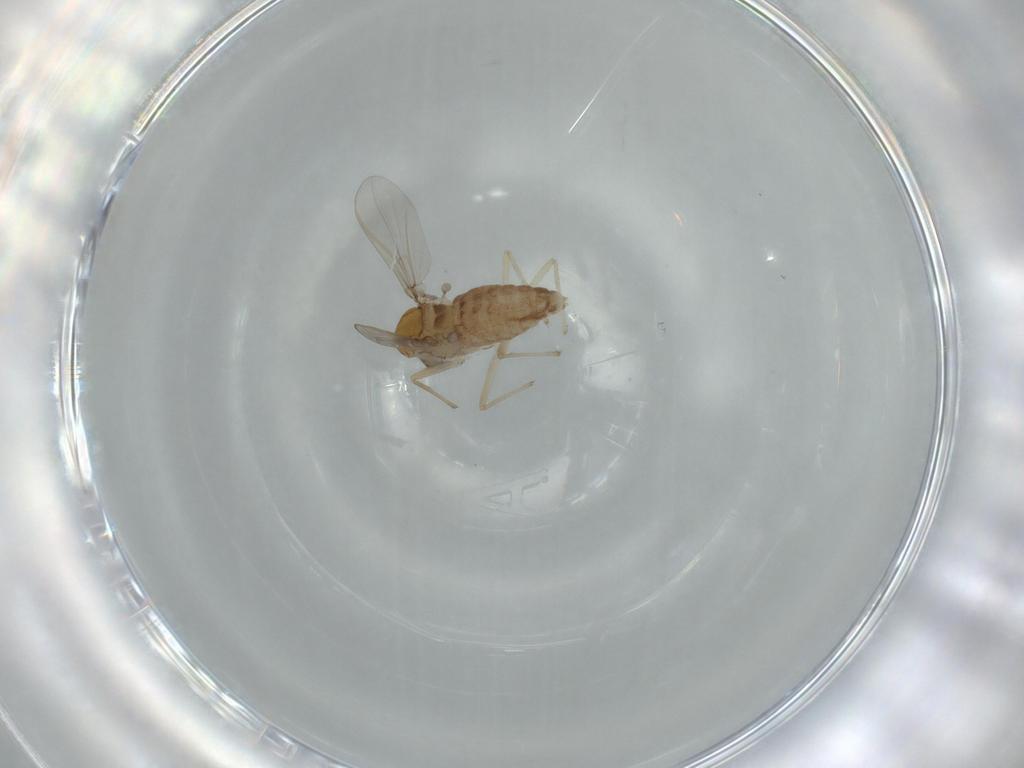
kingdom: Animalia
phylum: Arthropoda
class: Insecta
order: Diptera
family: Chironomidae
